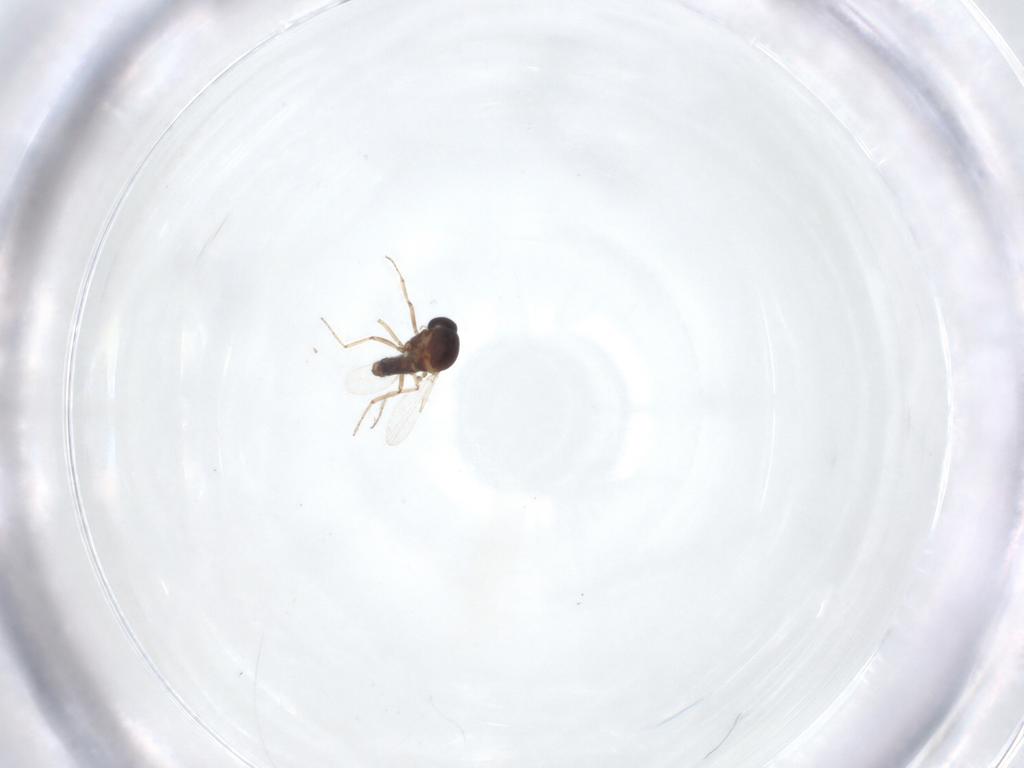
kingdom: Animalia
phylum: Arthropoda
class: Insecta
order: Diptera
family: Ceratopogonidae
